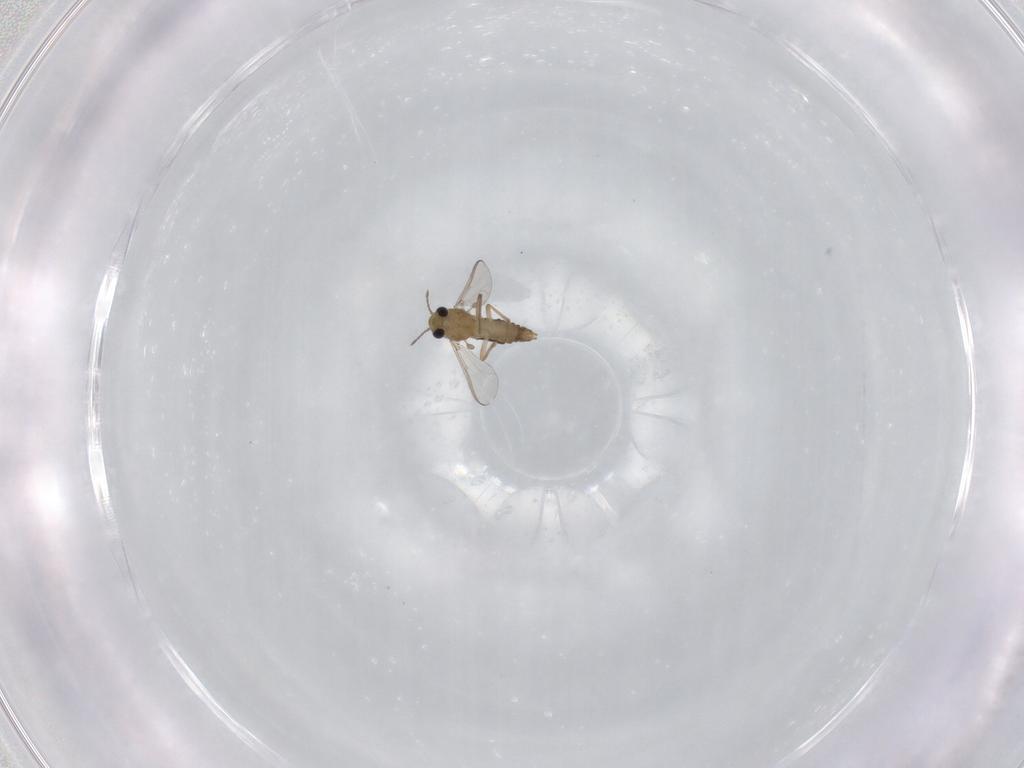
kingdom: Animalia
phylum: Arthropoda
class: Insecta
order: Diptera
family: Chironomidae
